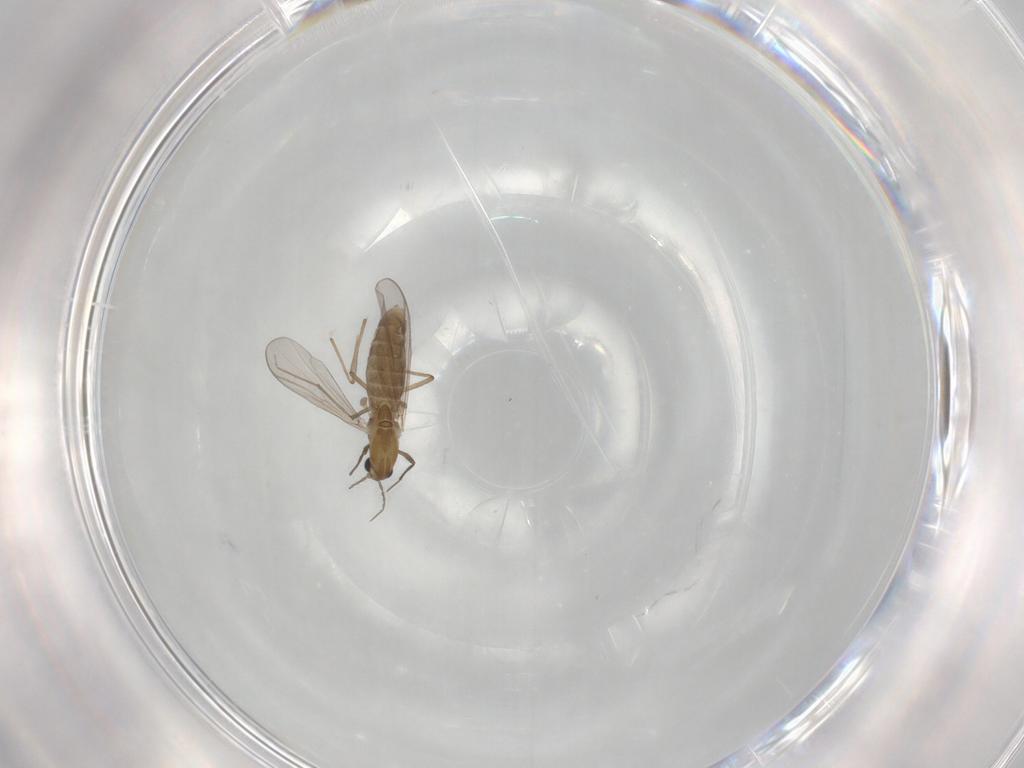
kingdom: Animalia
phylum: Arthropoda
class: Insecta
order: Diptera
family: Chironomidae
